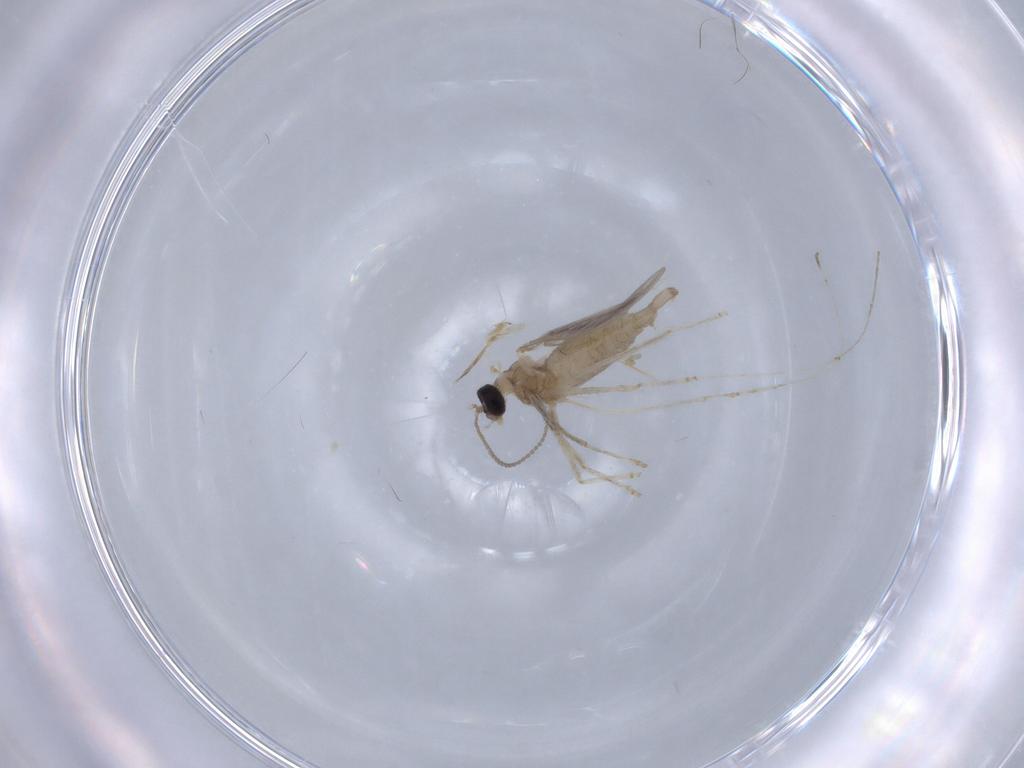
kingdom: Animalia
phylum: Arthropoda
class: Insecta
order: Diptera
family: Cecidomyiidae
